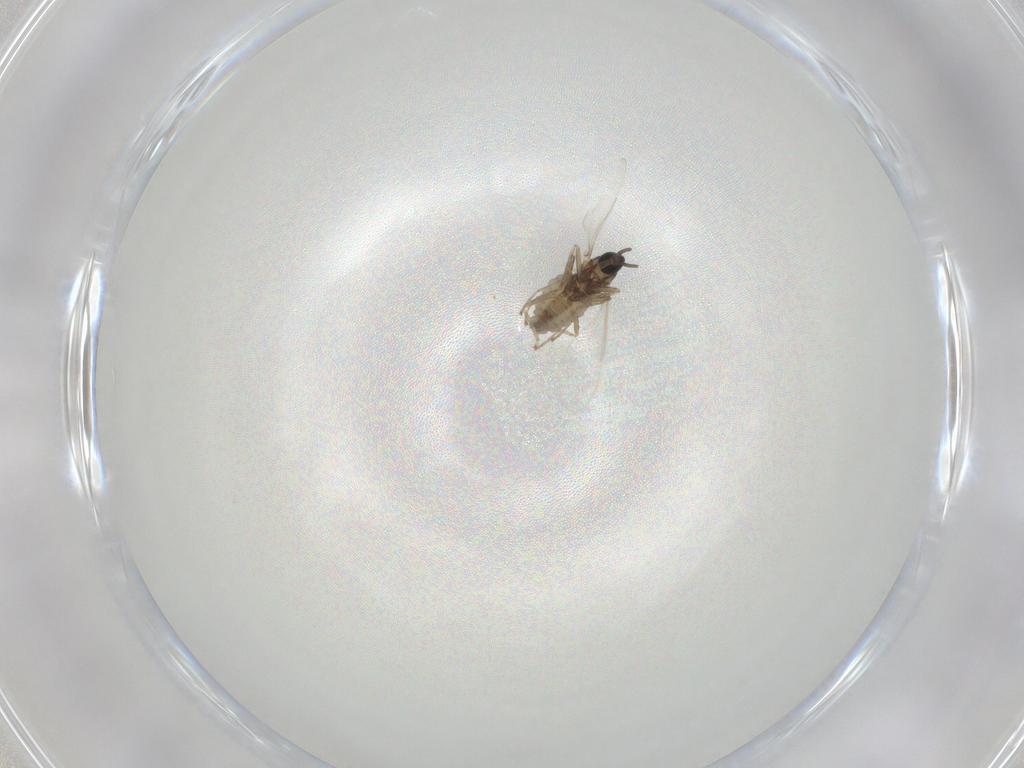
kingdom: Animalia
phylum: Arthropoda
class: Insecta
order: Diptera
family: Cecidomyiidae
